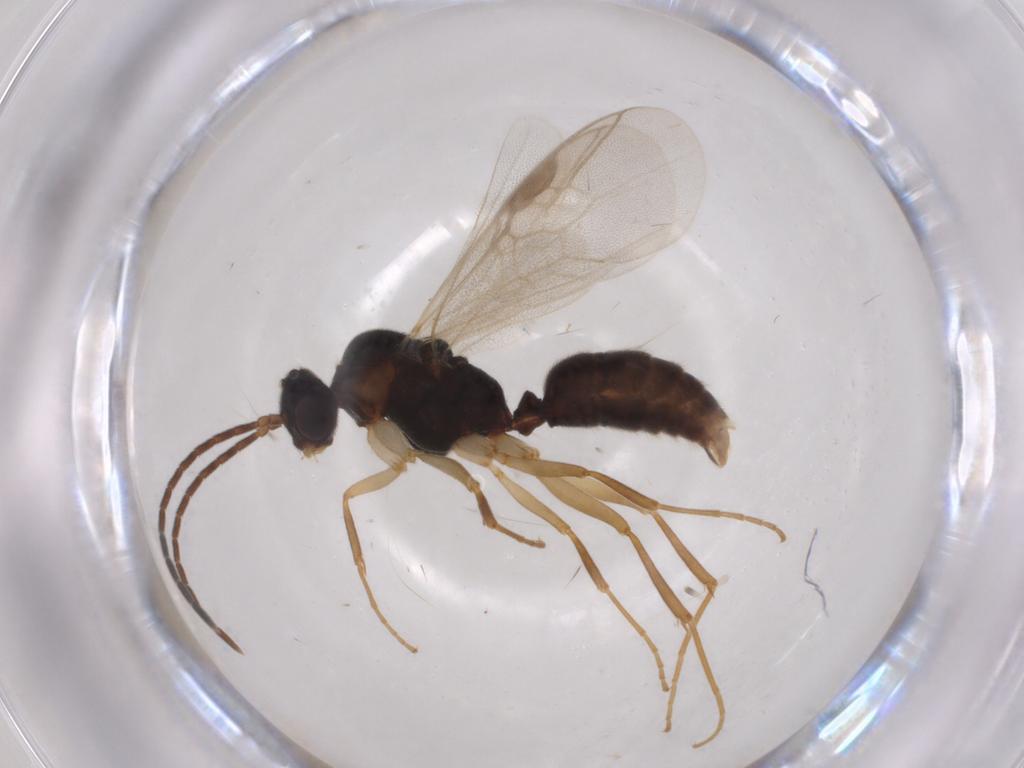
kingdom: Animalia
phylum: Arthropoda
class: Insecta
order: Hymenoptera
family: Formicidae
